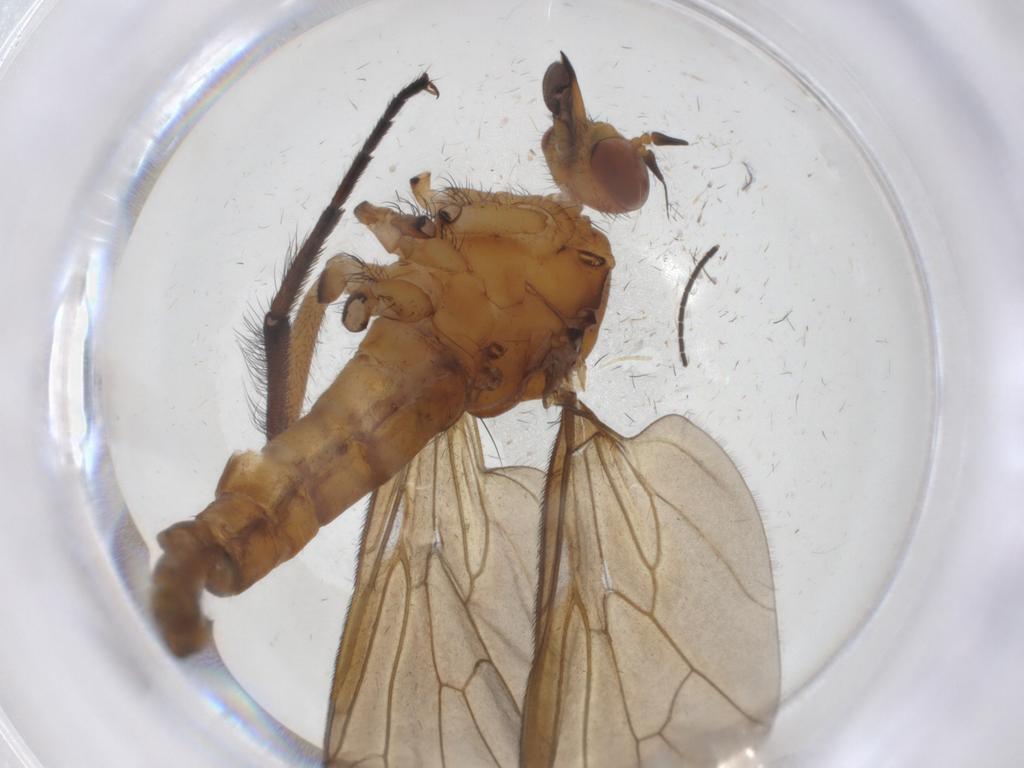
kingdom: Animalia
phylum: Arthropoda
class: Insecta
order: Diptera
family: Empididae
